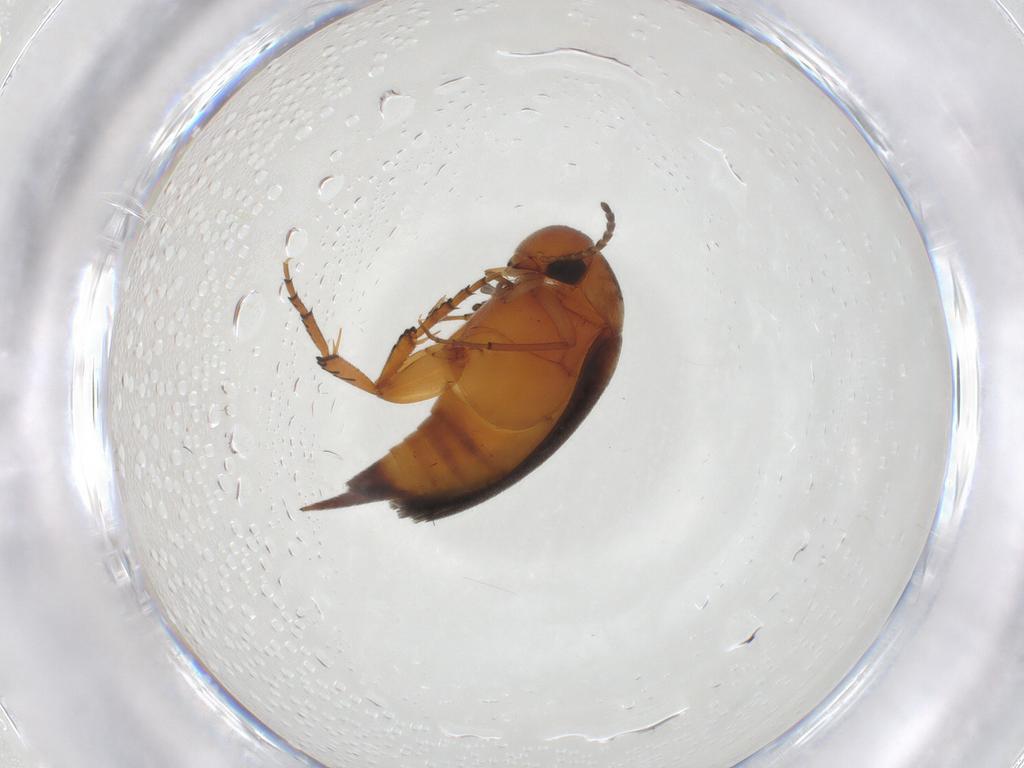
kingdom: Animalia
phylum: Arthropoda
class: Insecta
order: Coleoptera
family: Mordellidae
